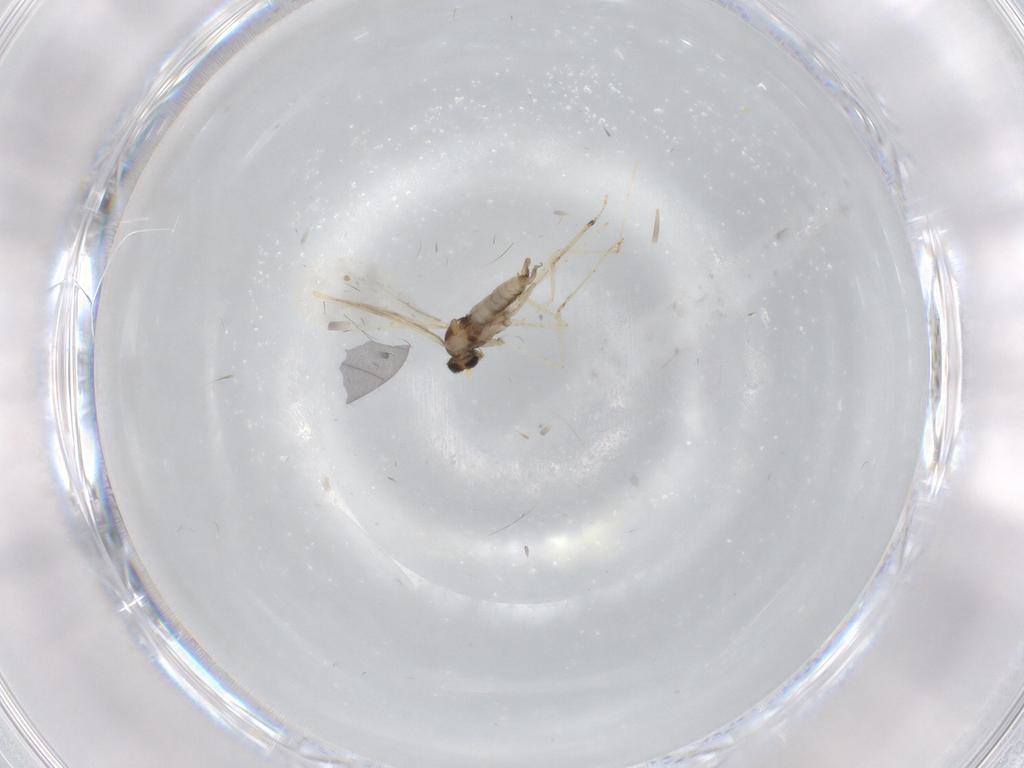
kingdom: Animalia
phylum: Arthropoda
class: Insecta
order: Diptera
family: Cecidomyiidae
